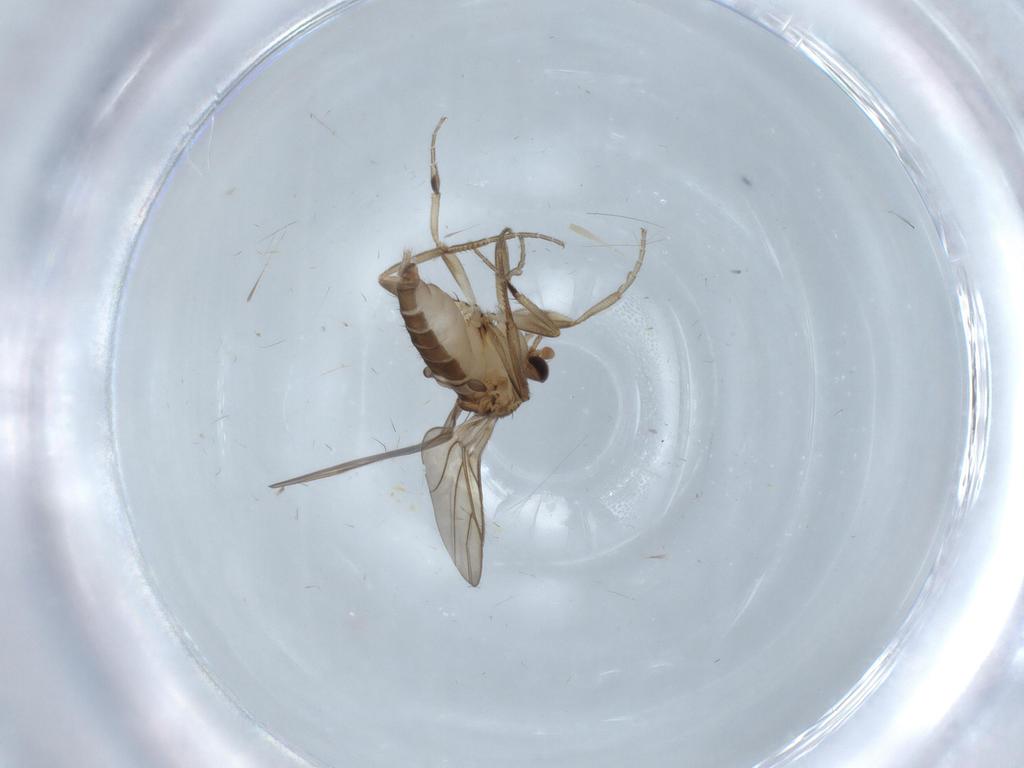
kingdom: Animalia
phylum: Arthropoda
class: Insecta
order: Diptera
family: Phoridae
